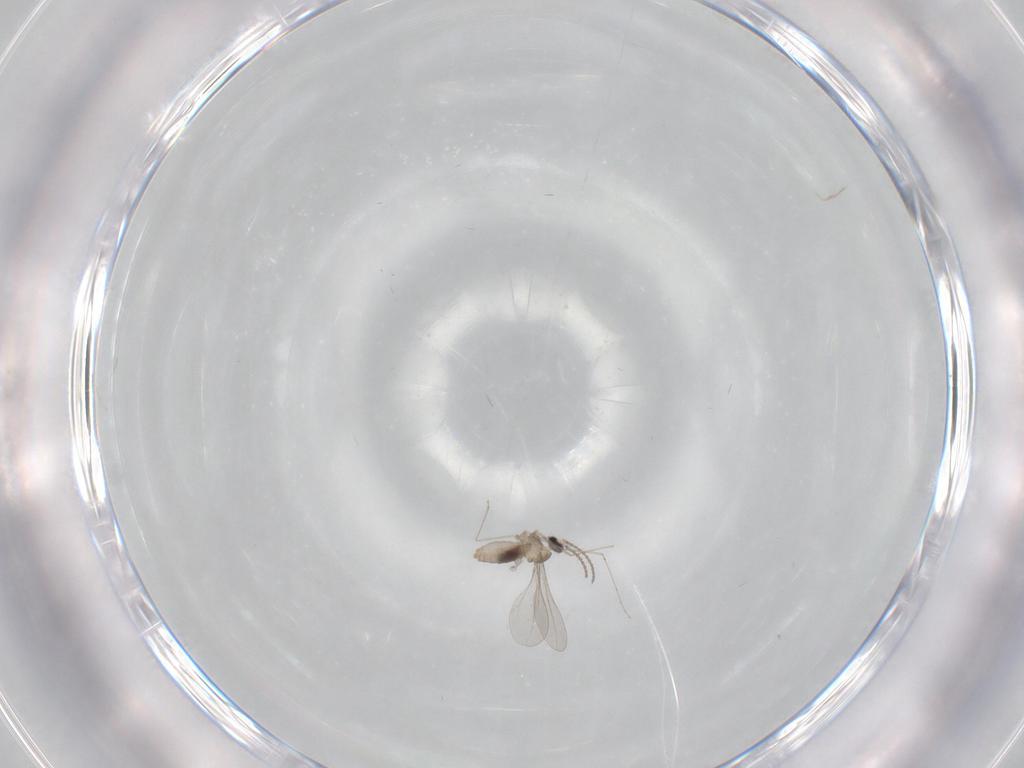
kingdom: Animalia
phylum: Arthropoda
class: Insecta
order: Diptera
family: Cecidomyiidae
